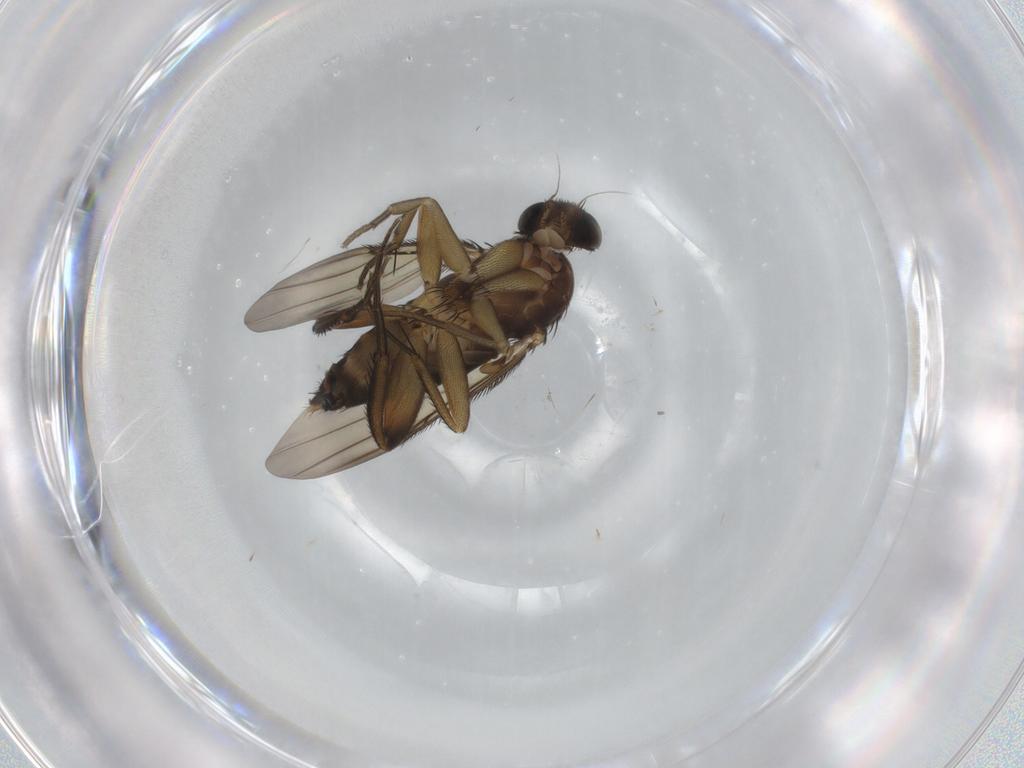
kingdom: Animalia
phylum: Arthropoda
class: Insecta
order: Diptera
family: Phoridae
